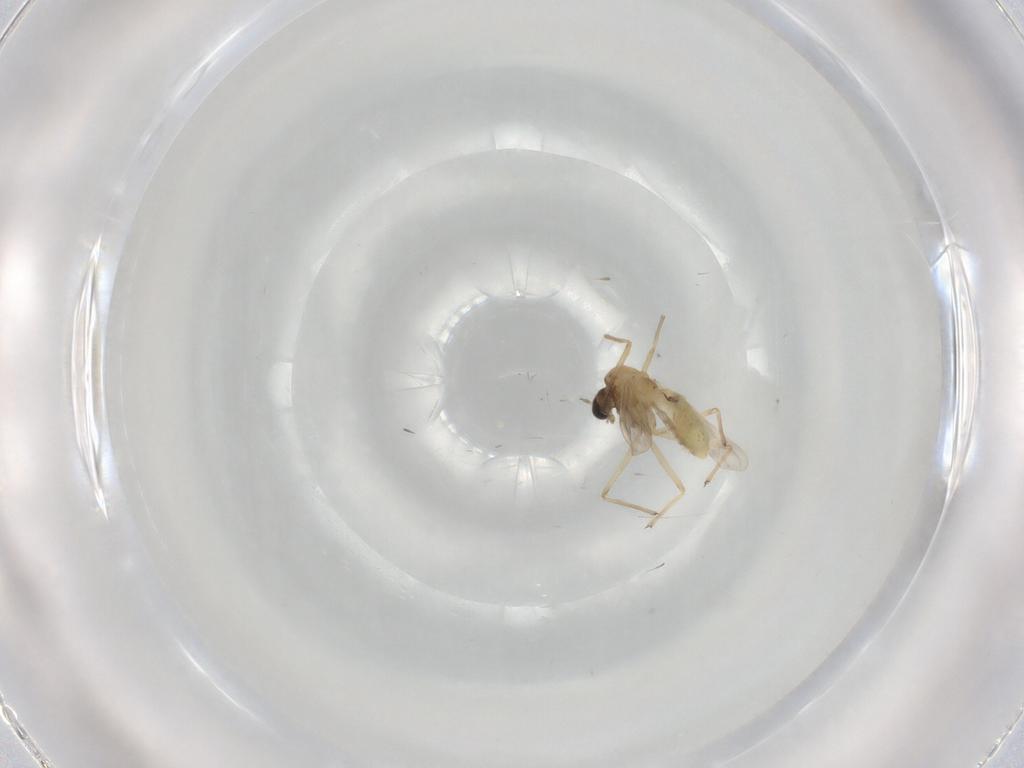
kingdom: Animalia
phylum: Arthropoda
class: Insecta
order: Diptera
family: Chironomidae
